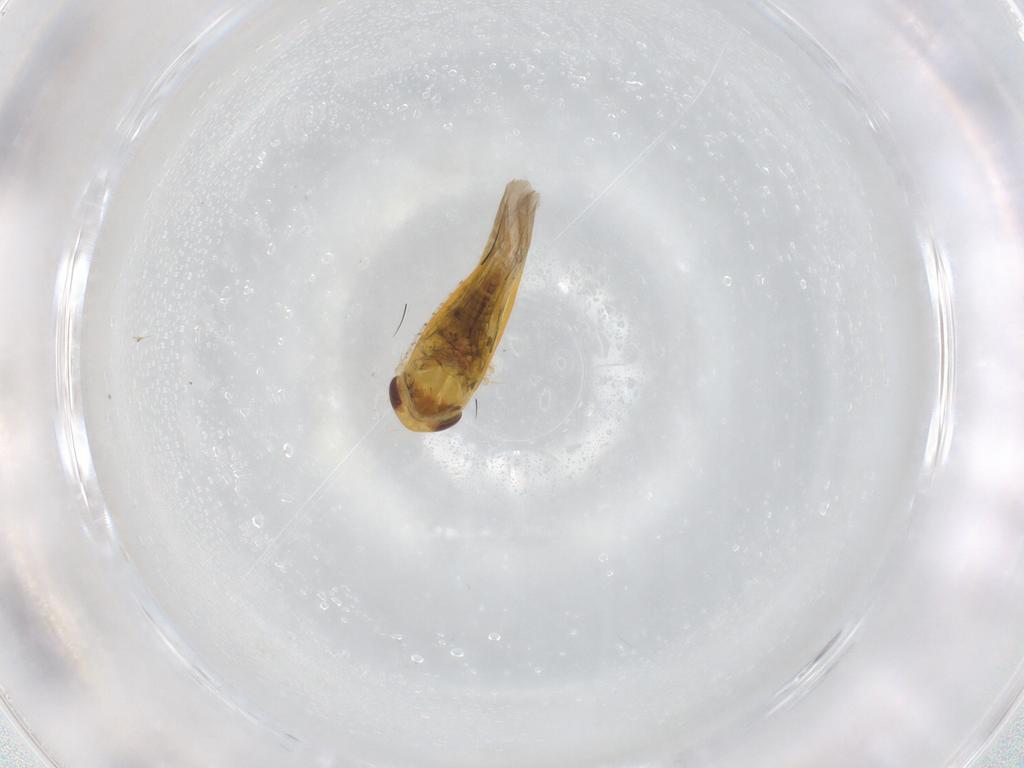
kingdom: Animalia
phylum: Arthropoda
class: Insecta
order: Hemiptera
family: Cicadellidae
